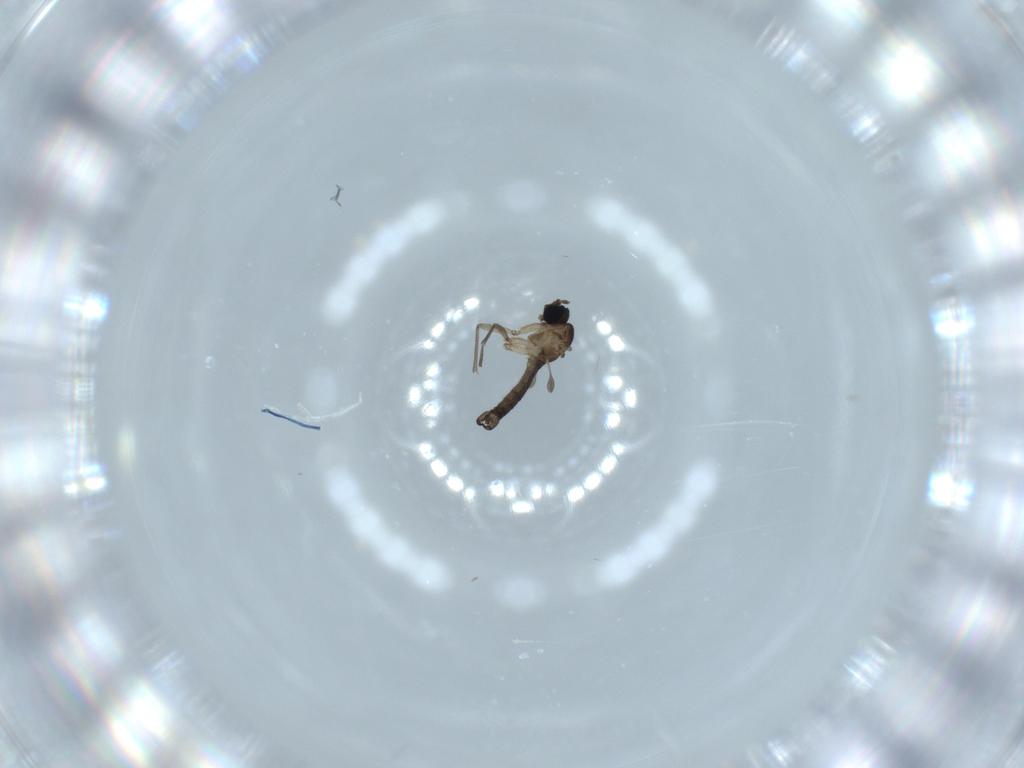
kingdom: Animalia
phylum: Arthropoda
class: Insecta
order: Diptera
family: Sciaridae
